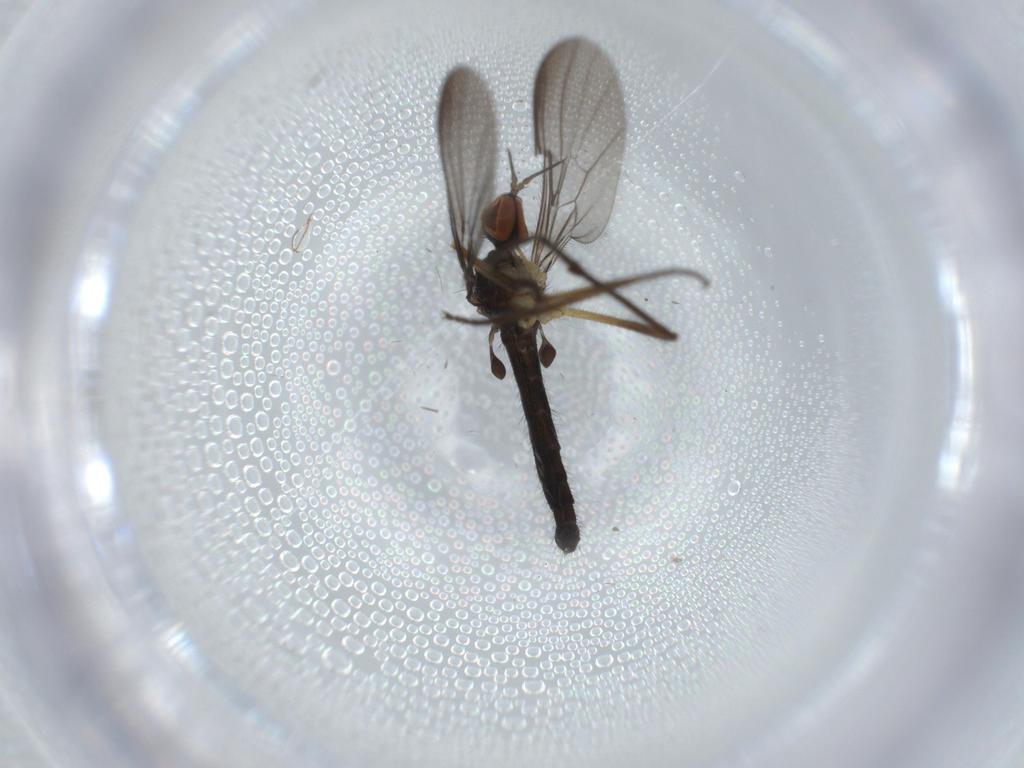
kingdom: Animalia
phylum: Arthropoda
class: Insecta
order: Diptera
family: Empididae
